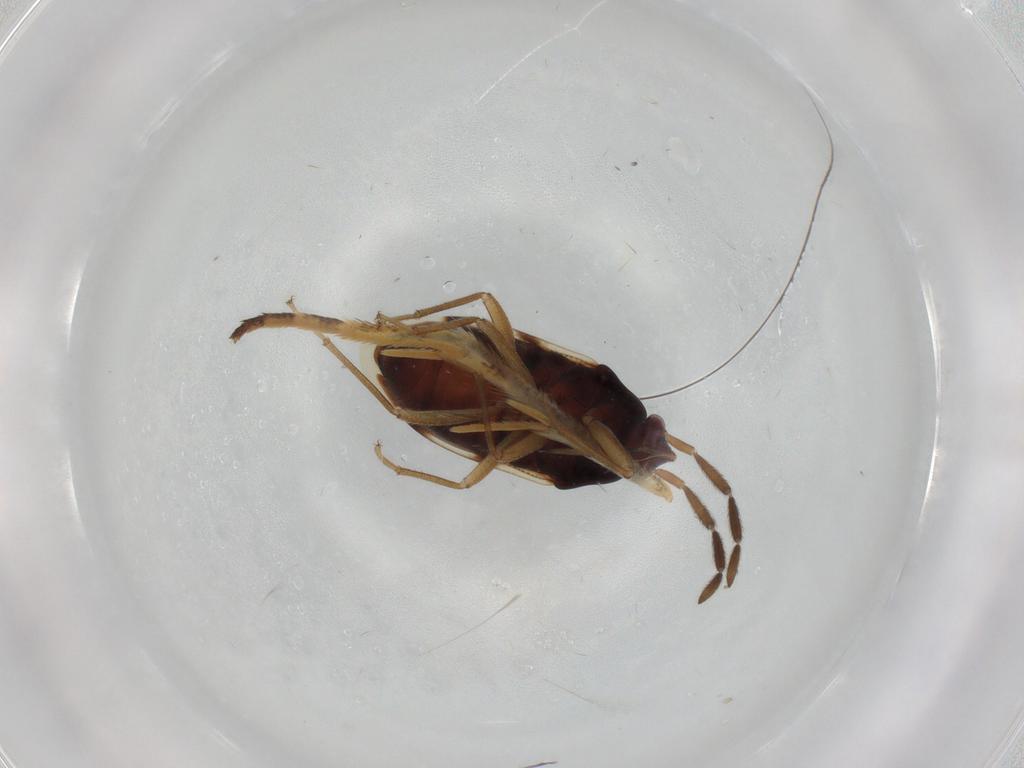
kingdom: Animalia
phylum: Arthropoda
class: Insecta
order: Hemiptera
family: Rhyparochromidae
